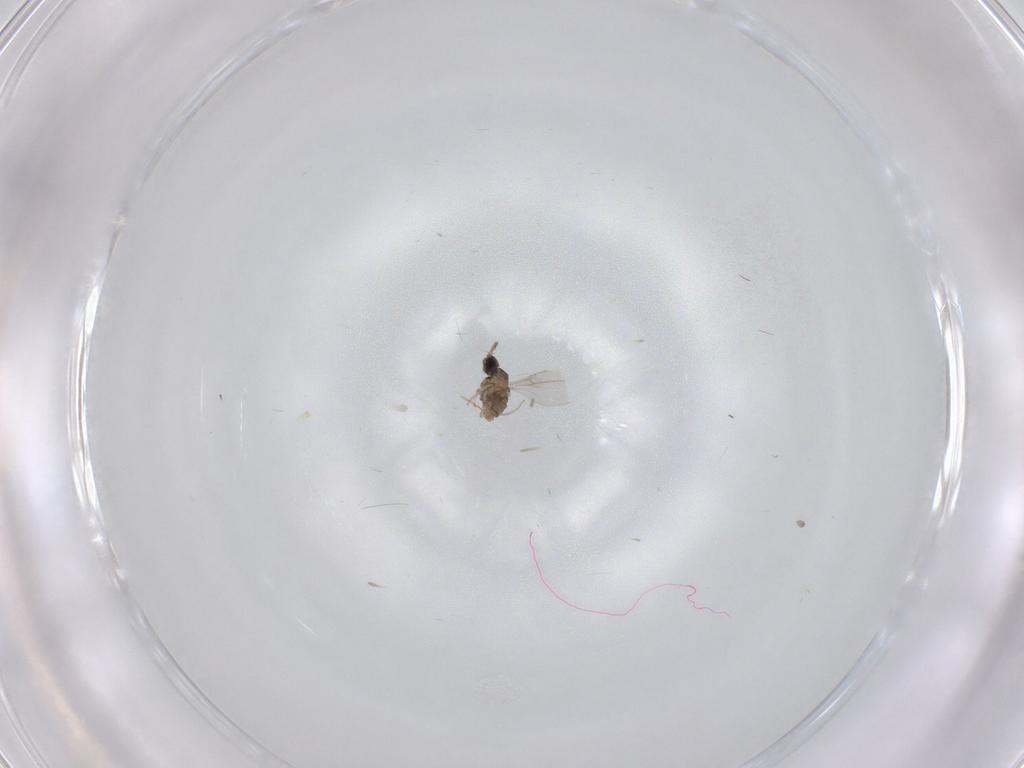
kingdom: Animalia
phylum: Arthropoda
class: Insecta
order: Diptera
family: Cecidomyiidae
